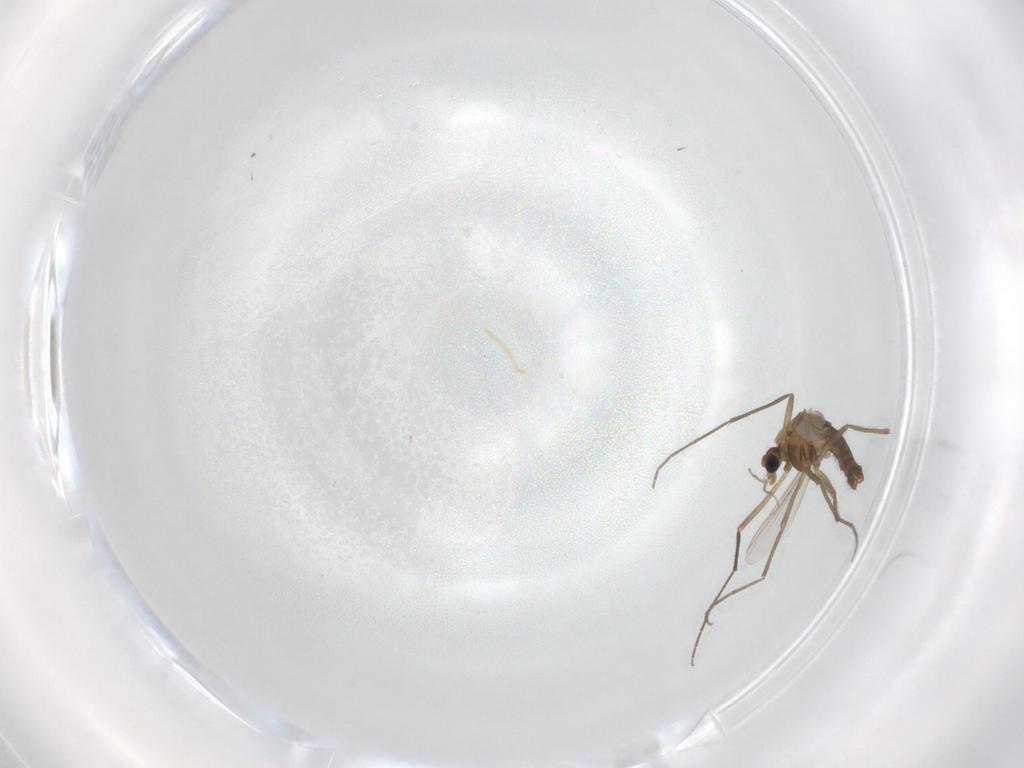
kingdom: Animalia
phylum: Arthropoda
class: Insecta
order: Diptera
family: Chironomidae
